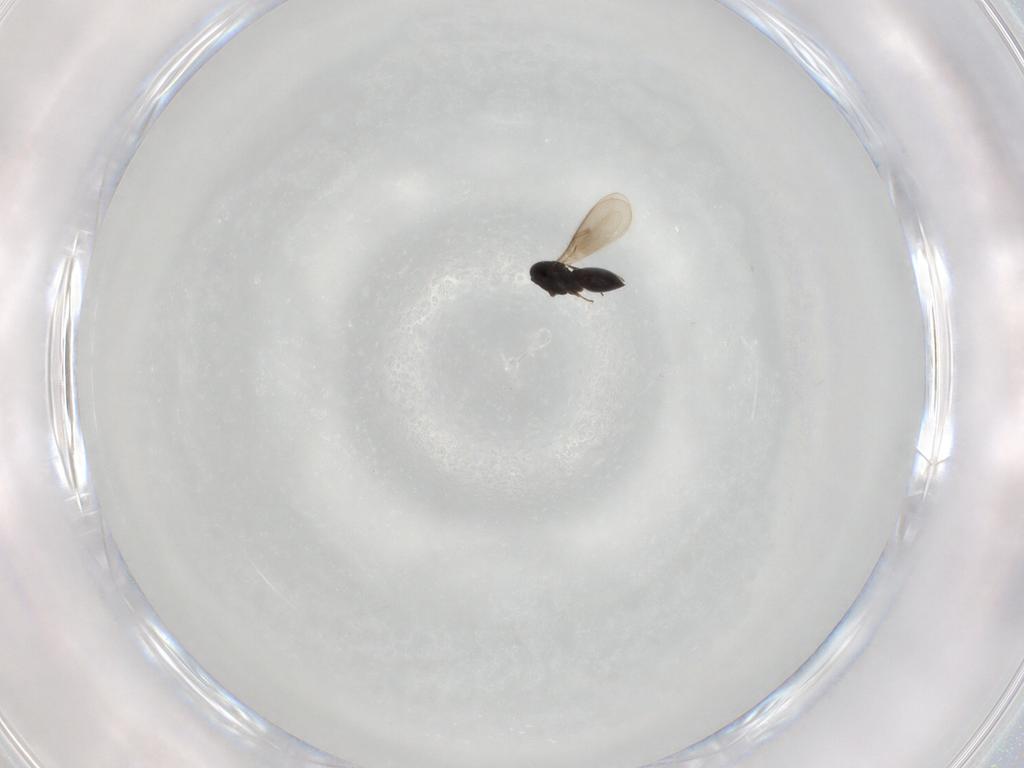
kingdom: Animalia
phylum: Arthropoda
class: Insecta
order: Hymenoptera
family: Scelionidae
